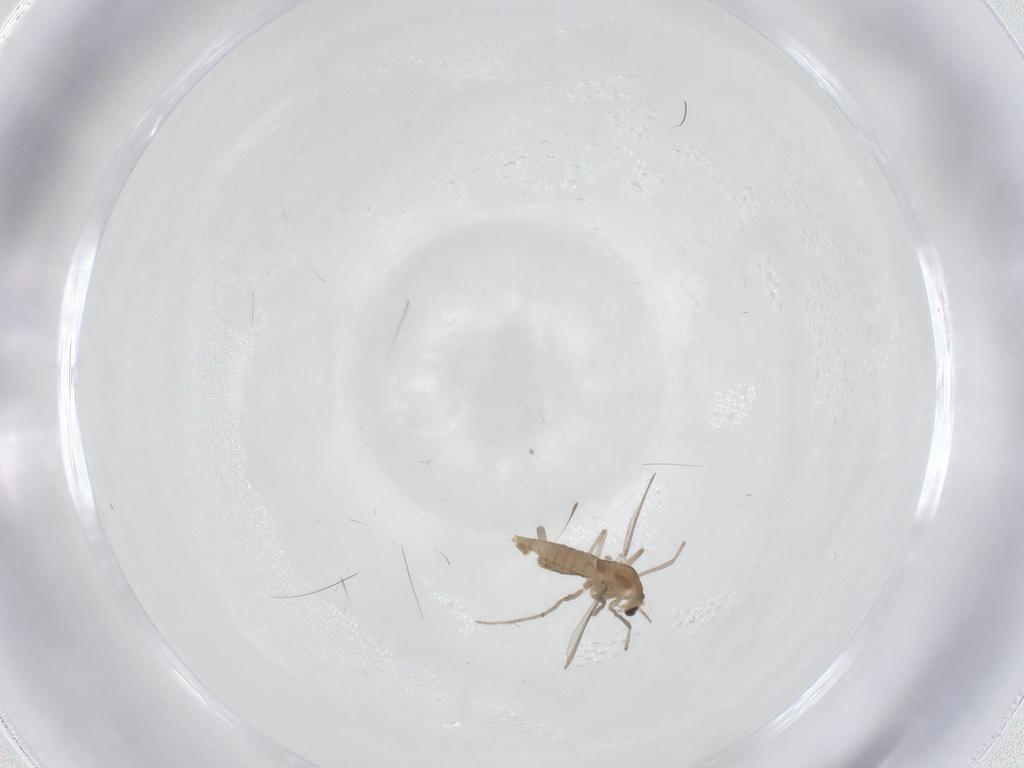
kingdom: Animalia
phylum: Arthropoda
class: Insecta
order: Diptera
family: Chironomidae
